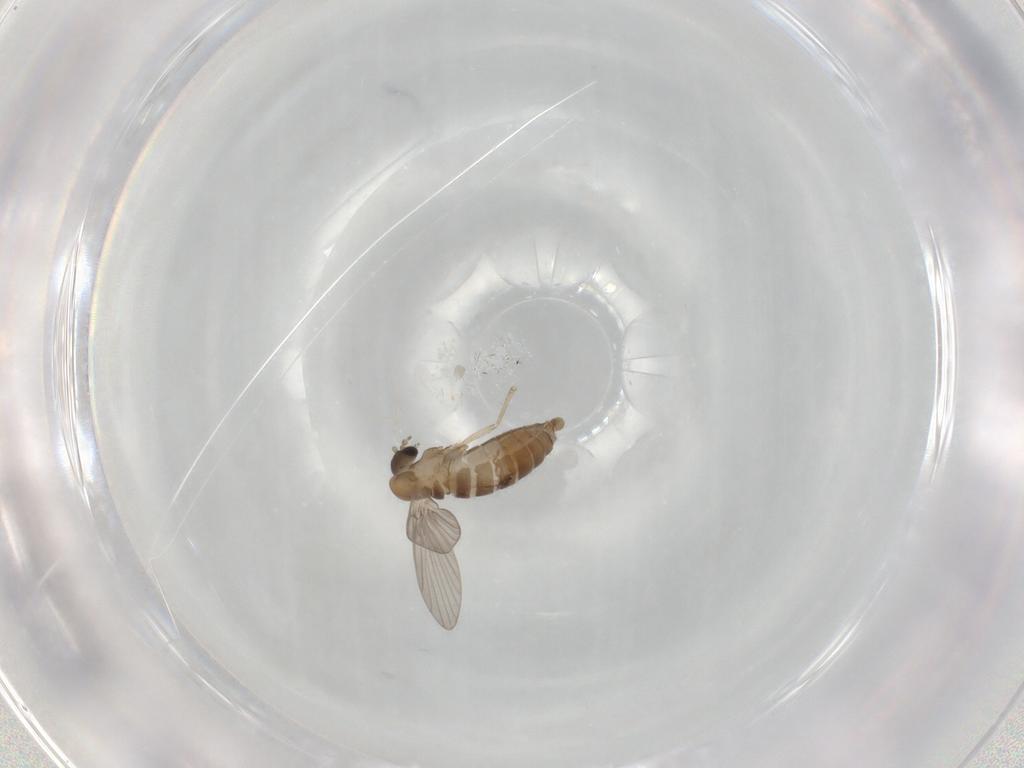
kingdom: Animalia
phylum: Arthropoda
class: Insecta
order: Diptera
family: Psychodidae
